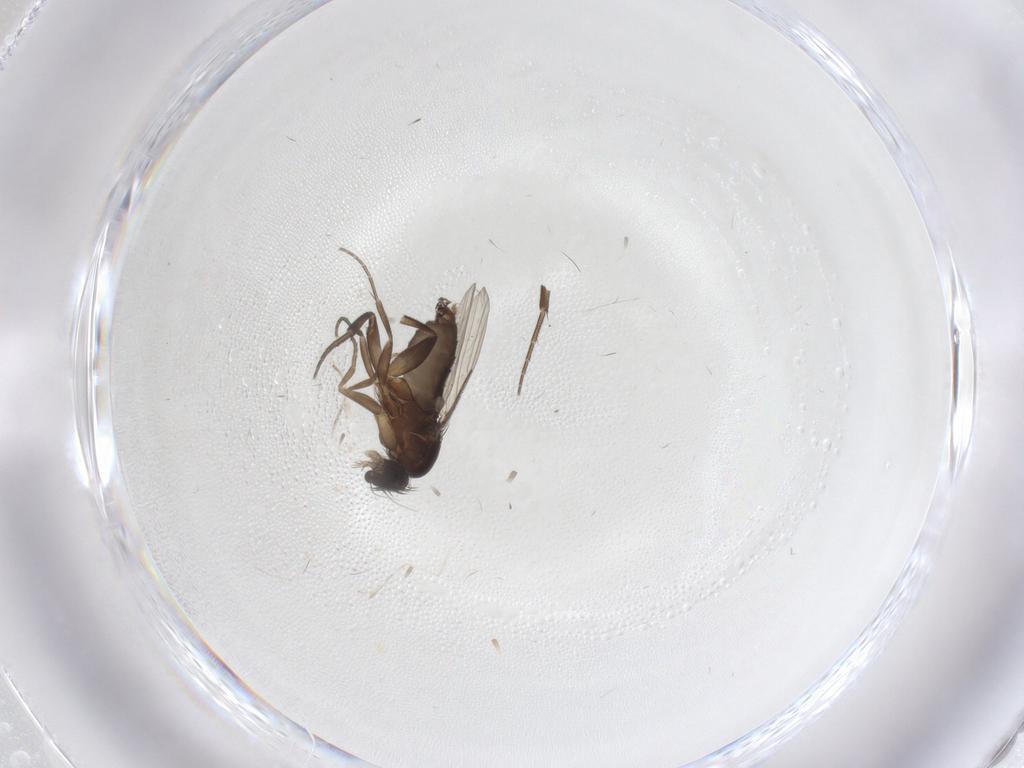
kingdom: Animalia
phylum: Arthropoda
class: Insecta
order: Diptera
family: Phoridae
